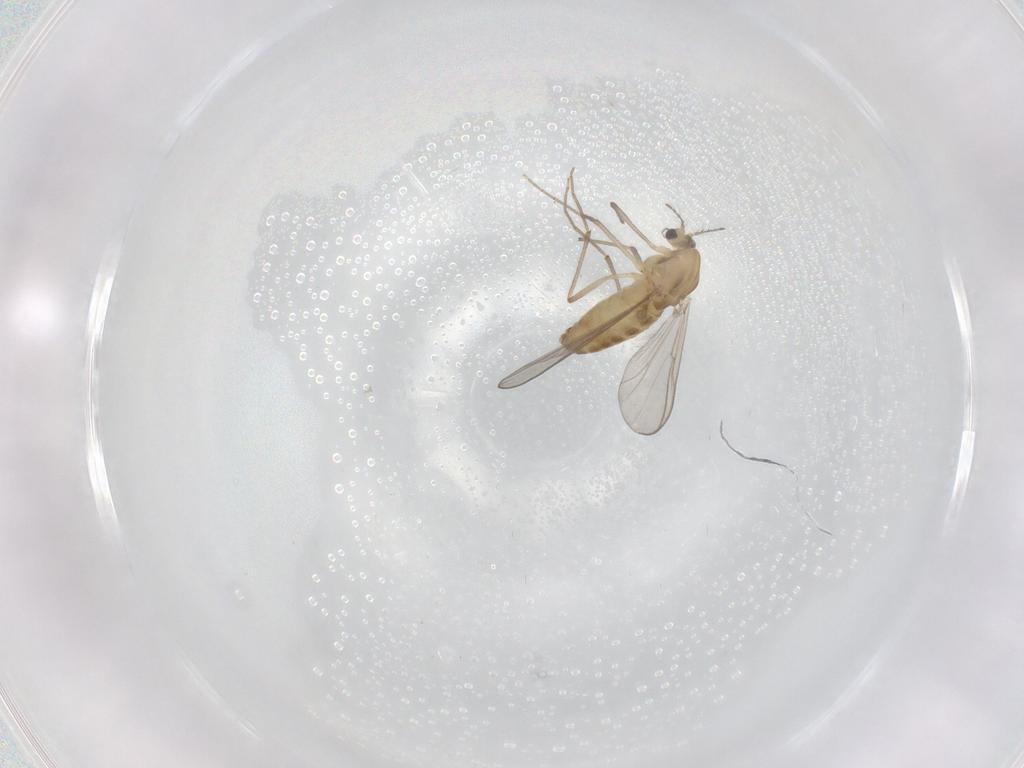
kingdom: Animalia
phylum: Arthropoda
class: Insecta
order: Diptera
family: Chironomidae
